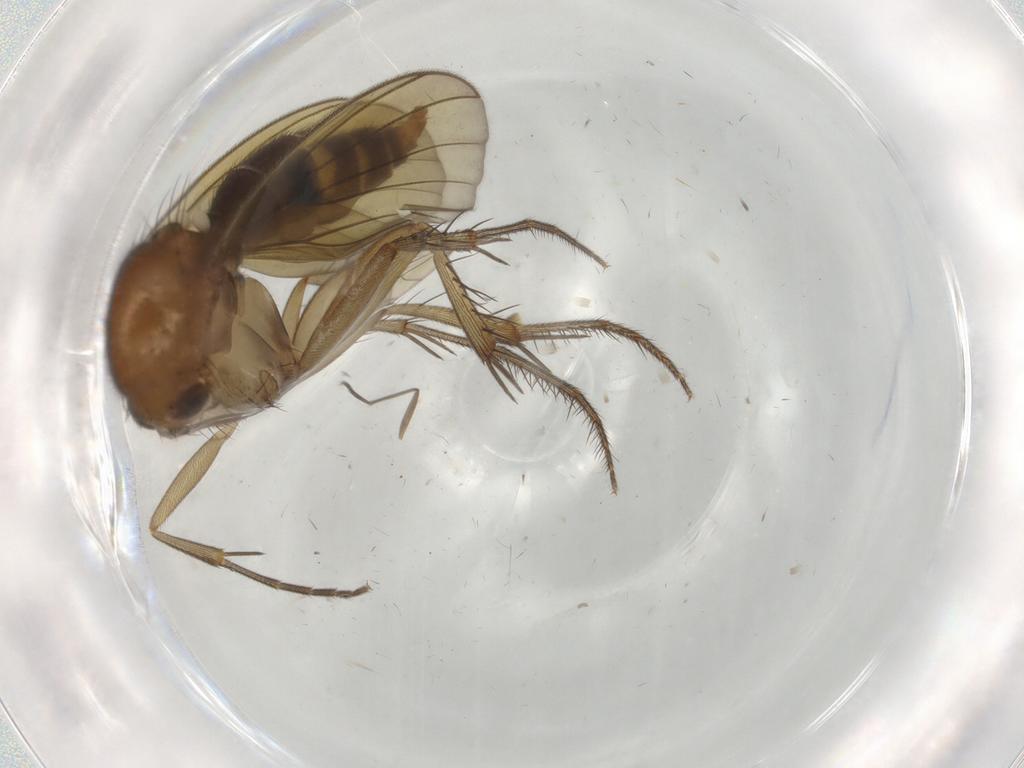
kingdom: Animalia
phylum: Arthropoda
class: Insecta
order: Diptera
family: Mycetophilidae
